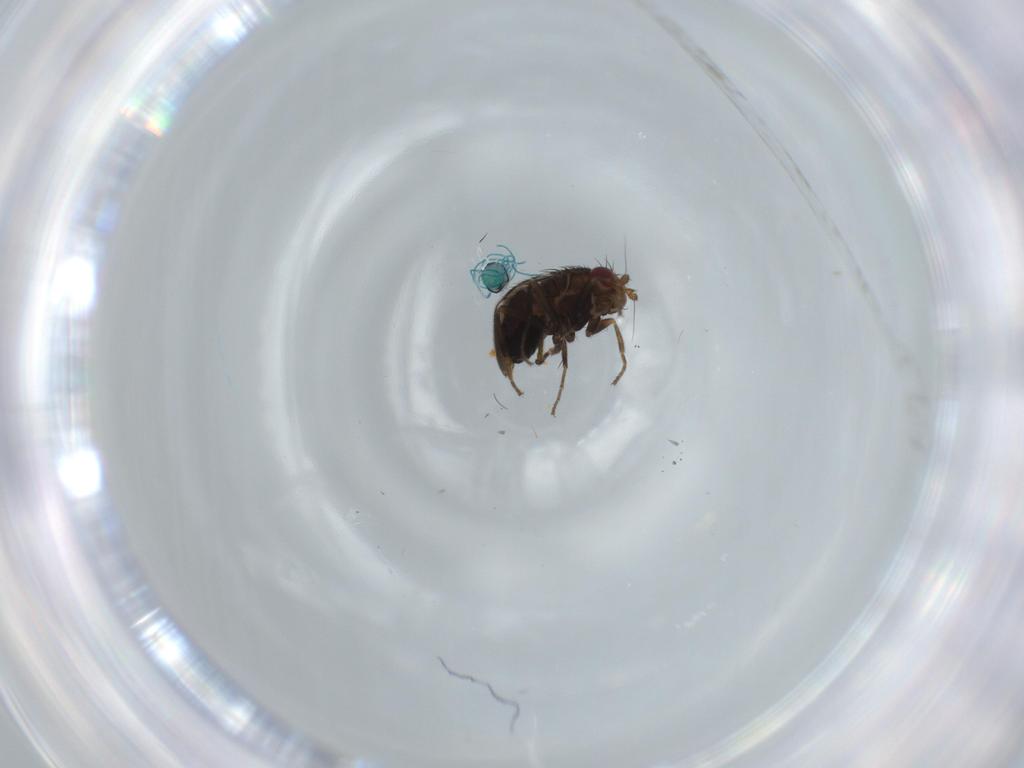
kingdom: Animalia
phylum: Arthropoda
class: Insecta
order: Diptera
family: Sphaeroceridae
